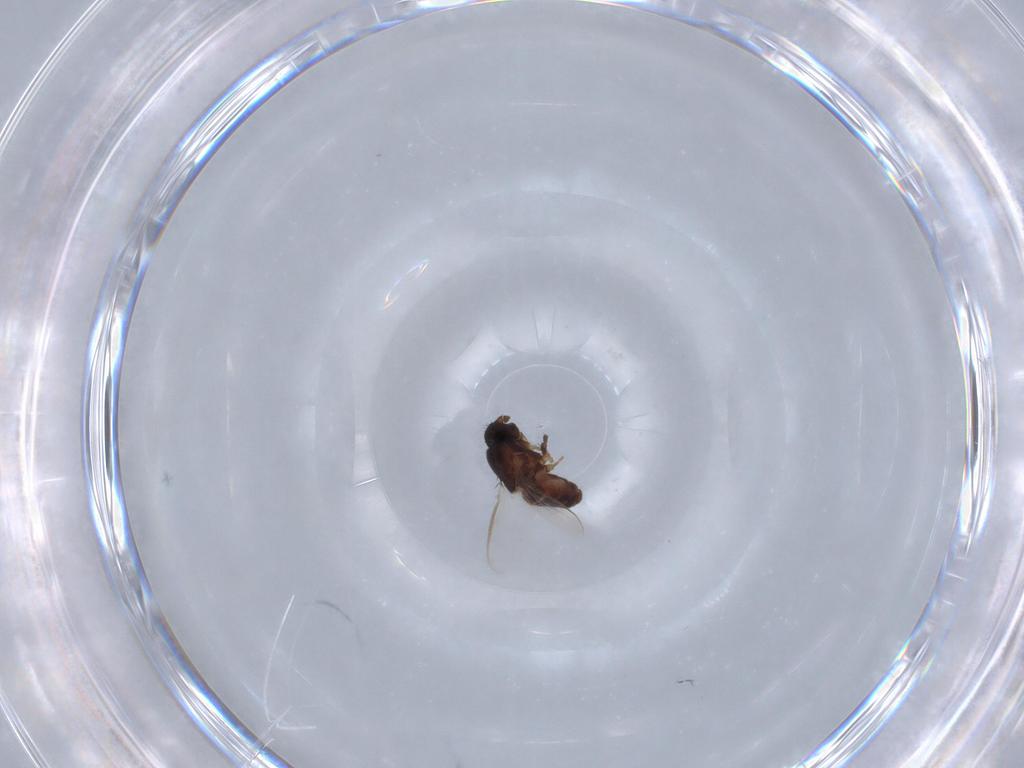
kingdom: Animalia
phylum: Arthropoda
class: Insecta
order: Diptera
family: Sphaeroceridae
